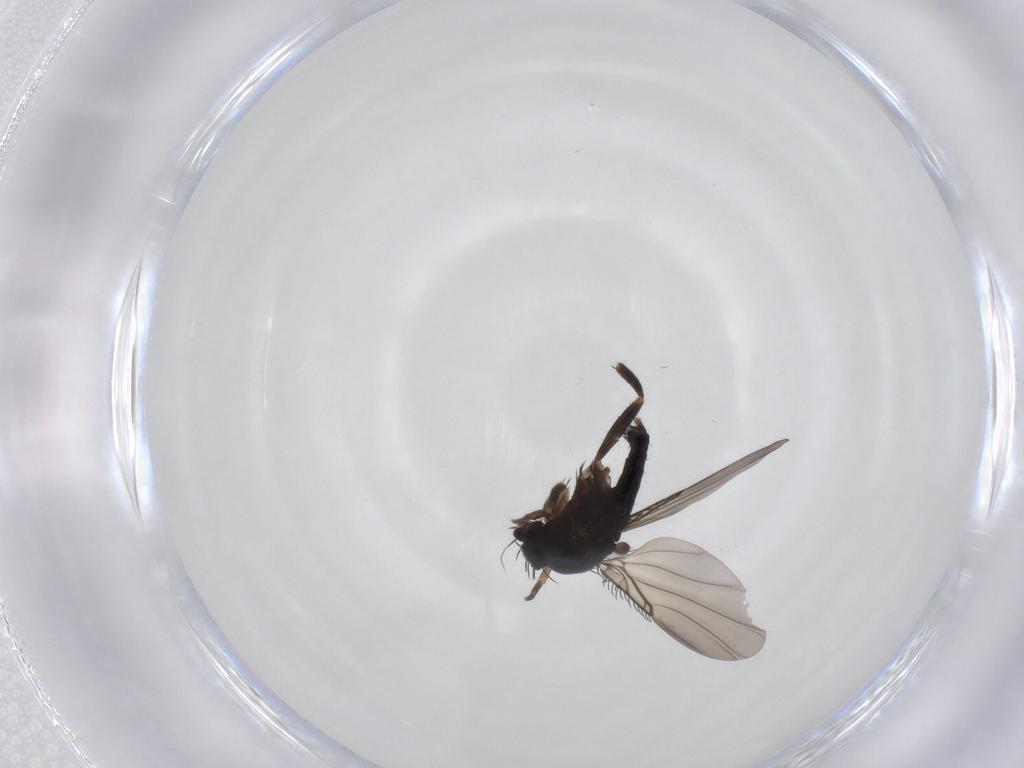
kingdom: Animalia
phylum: Arthropoda
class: Insecta
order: Diptera
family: Phoridae
